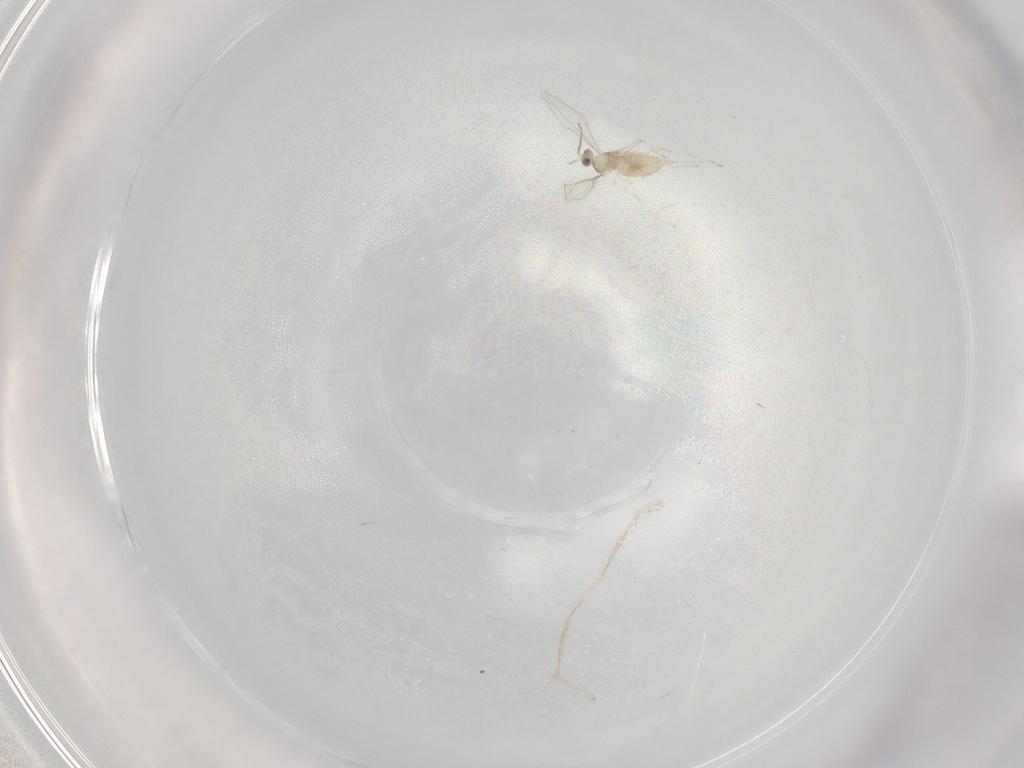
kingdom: Animalia
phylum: Arthropoda
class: Insecta
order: Diptera
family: Cecidomyiidae
